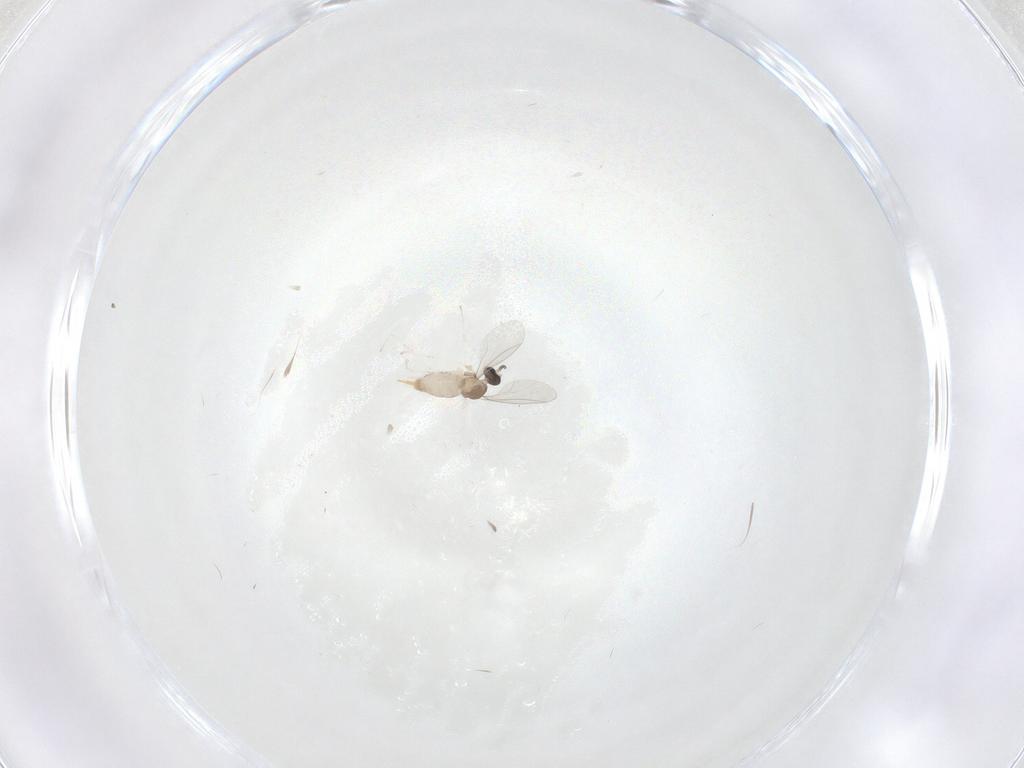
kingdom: Animalia
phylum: Arthropoda
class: Insecta
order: Diptera
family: Cecidomyiidae
